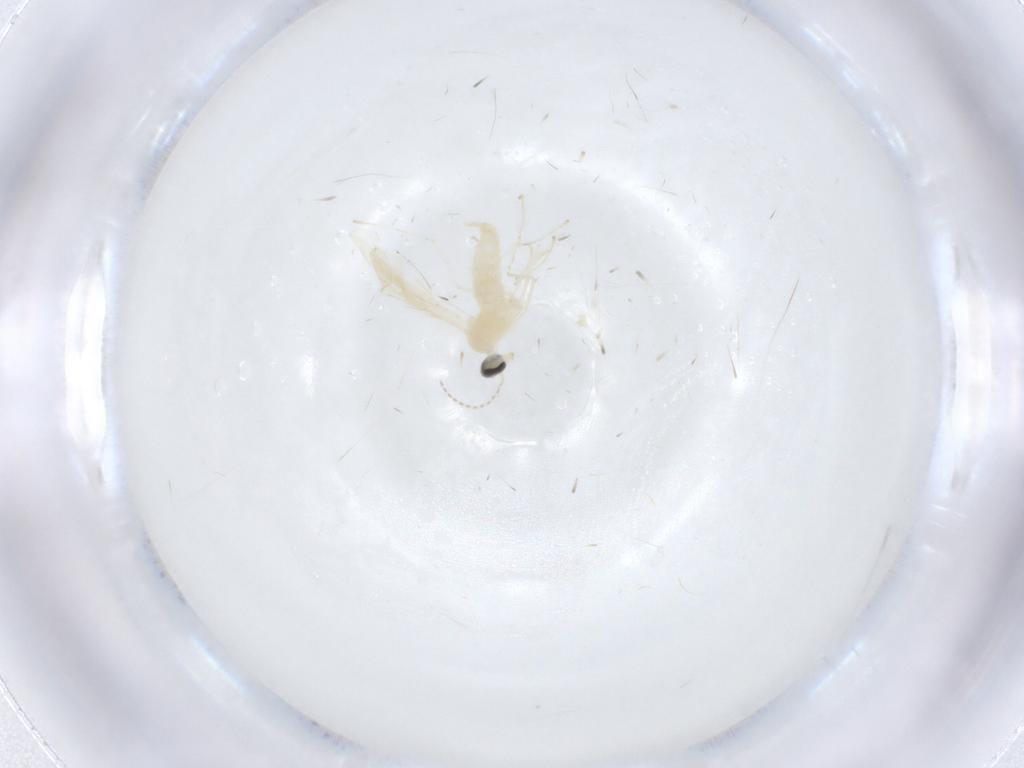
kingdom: Animalia
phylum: Arthropoda
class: Insecta
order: Diptera
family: Cecidomyiidae
